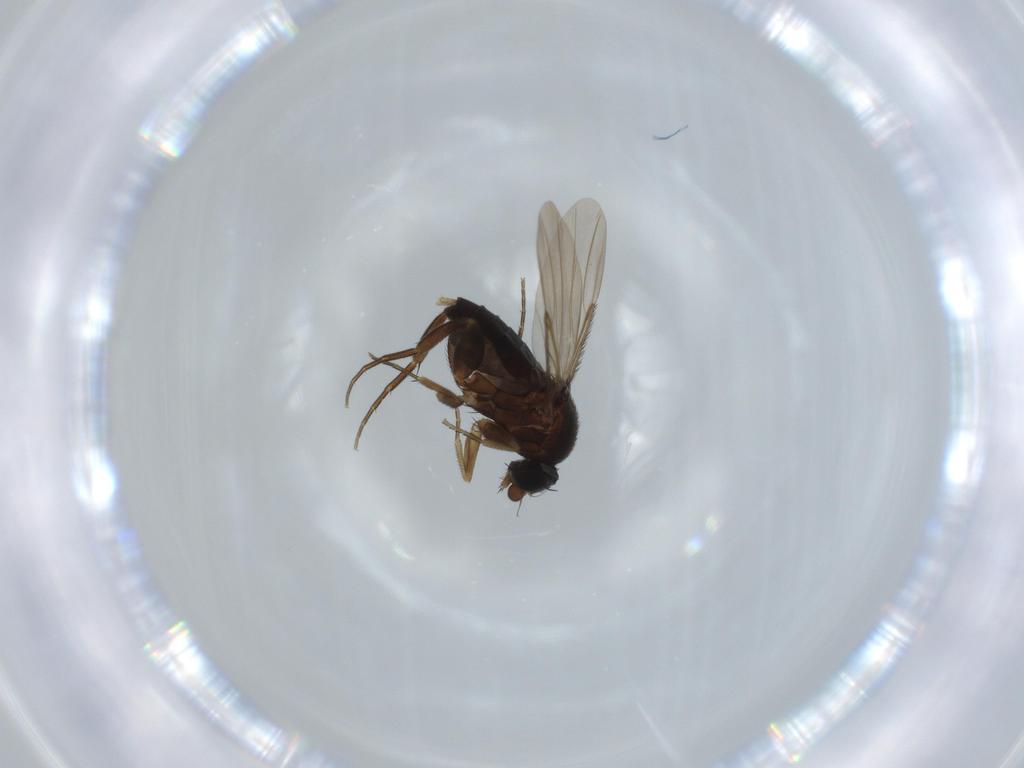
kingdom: Animalia
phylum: Arthropoda
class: Insecta
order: Diptera
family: Phoridae
